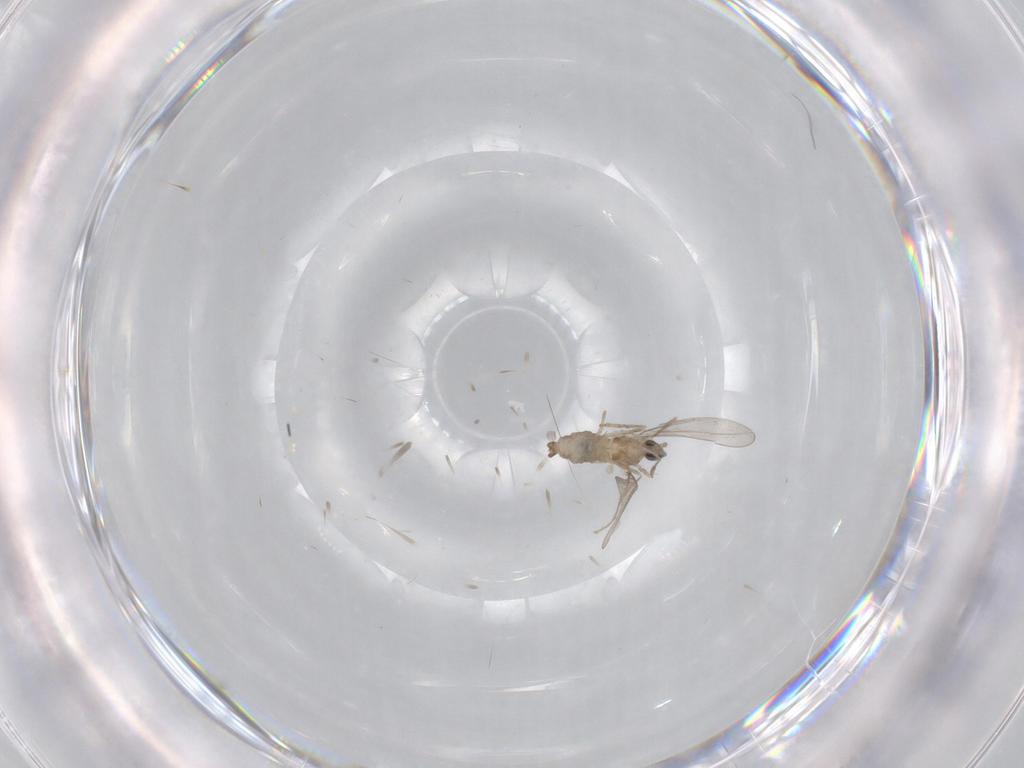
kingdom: Animalia
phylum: Arthropoda
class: Insecta
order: Diptera
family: Cecidomyiidae
